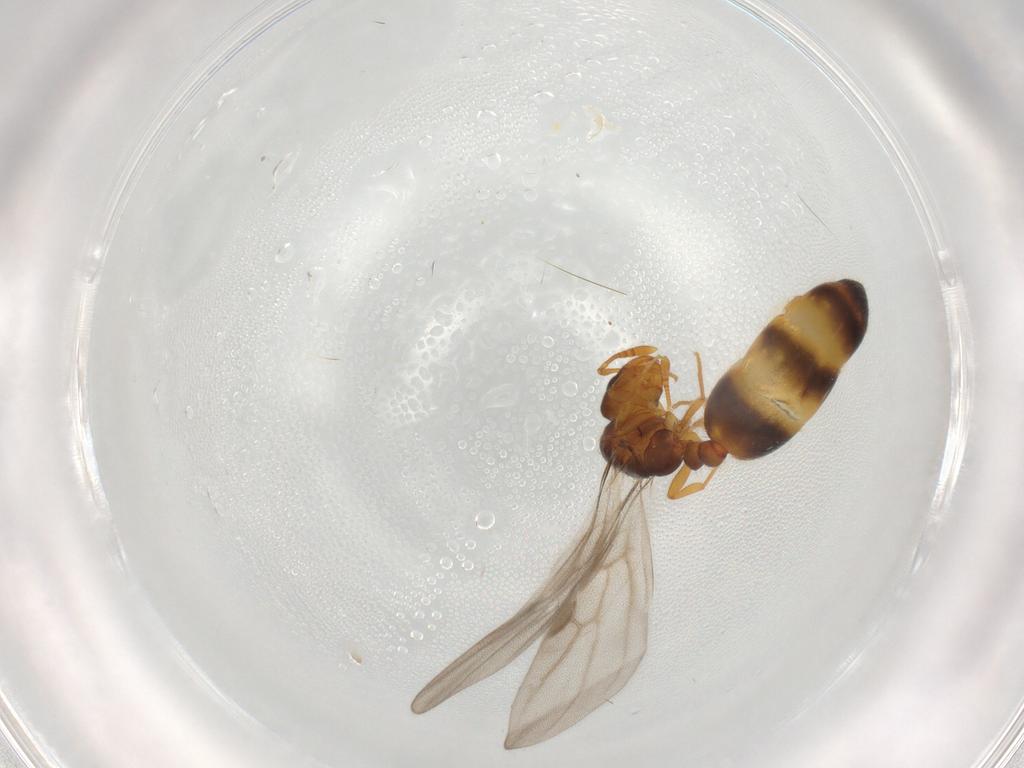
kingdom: Animalia
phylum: Arthropoda
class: Insecta
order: Hymenoptera
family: Formicidae
